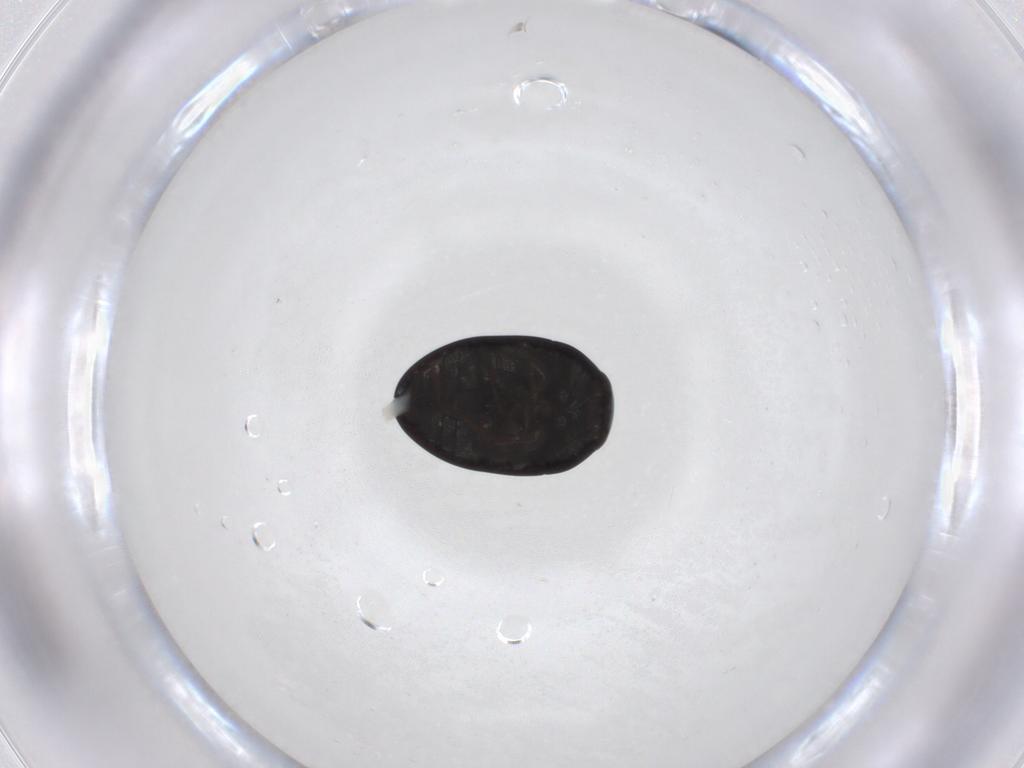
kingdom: Animalia
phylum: Arthropoda
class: Insecta
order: Coleoptera
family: Phalacridae
